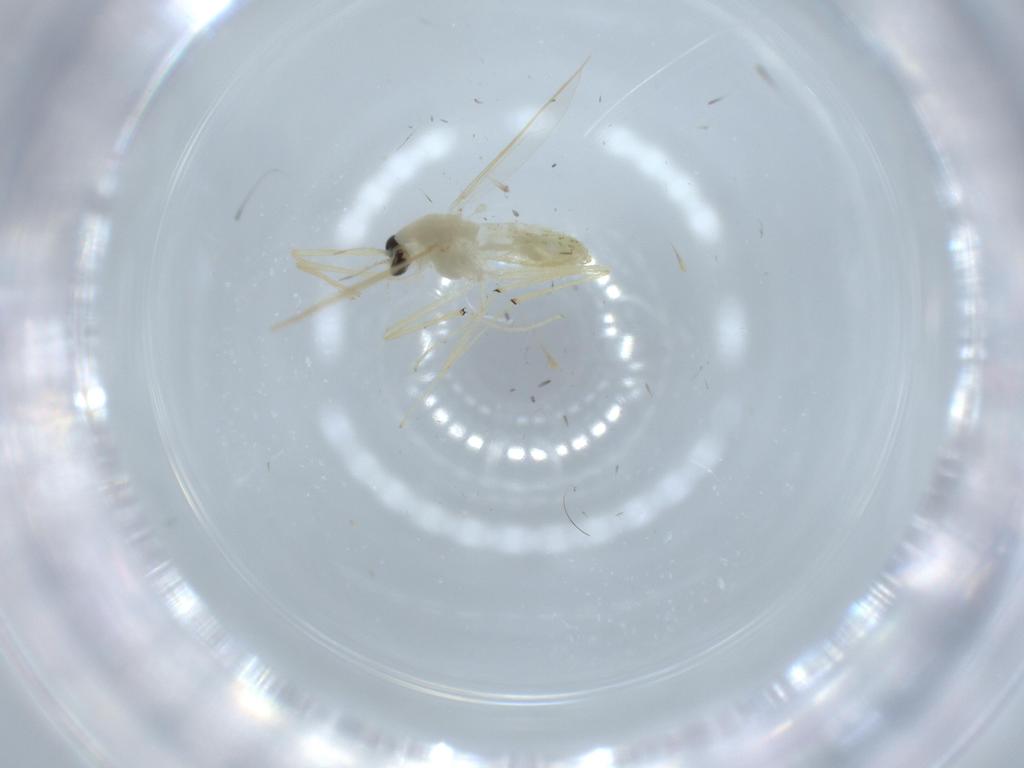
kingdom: Animalia
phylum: Arthropoda
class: Insecta
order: Diptera
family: Chironomidae
